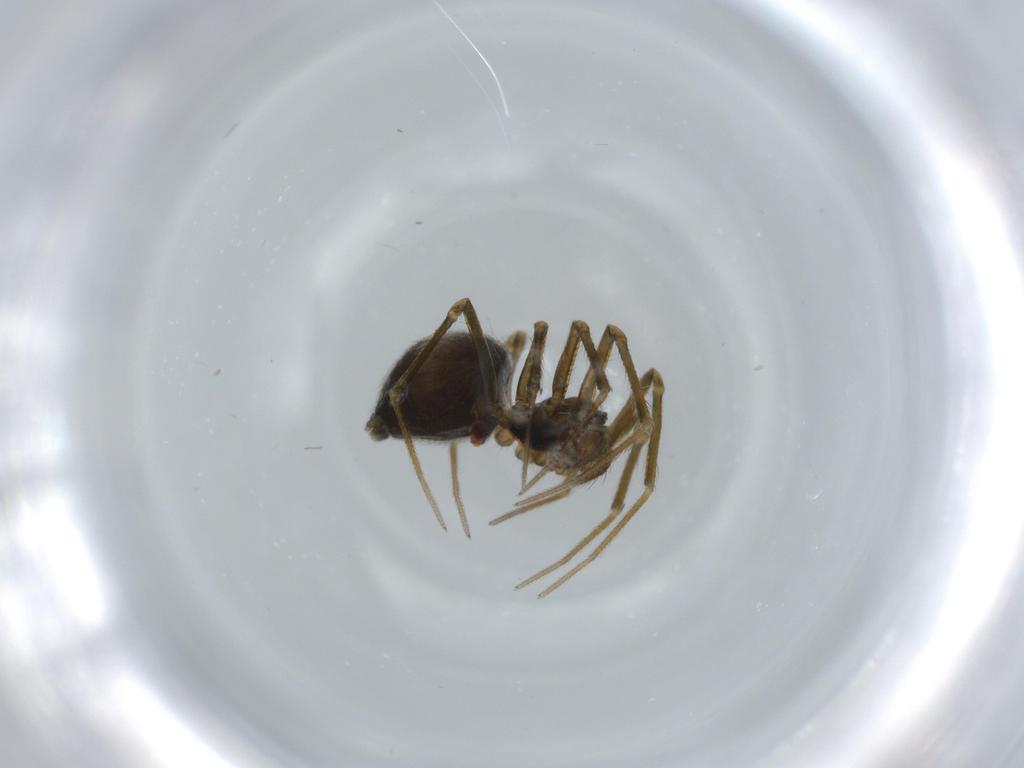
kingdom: Animalia
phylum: Arthropoda
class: Arachnida
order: Araneae
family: Linyphiidae
